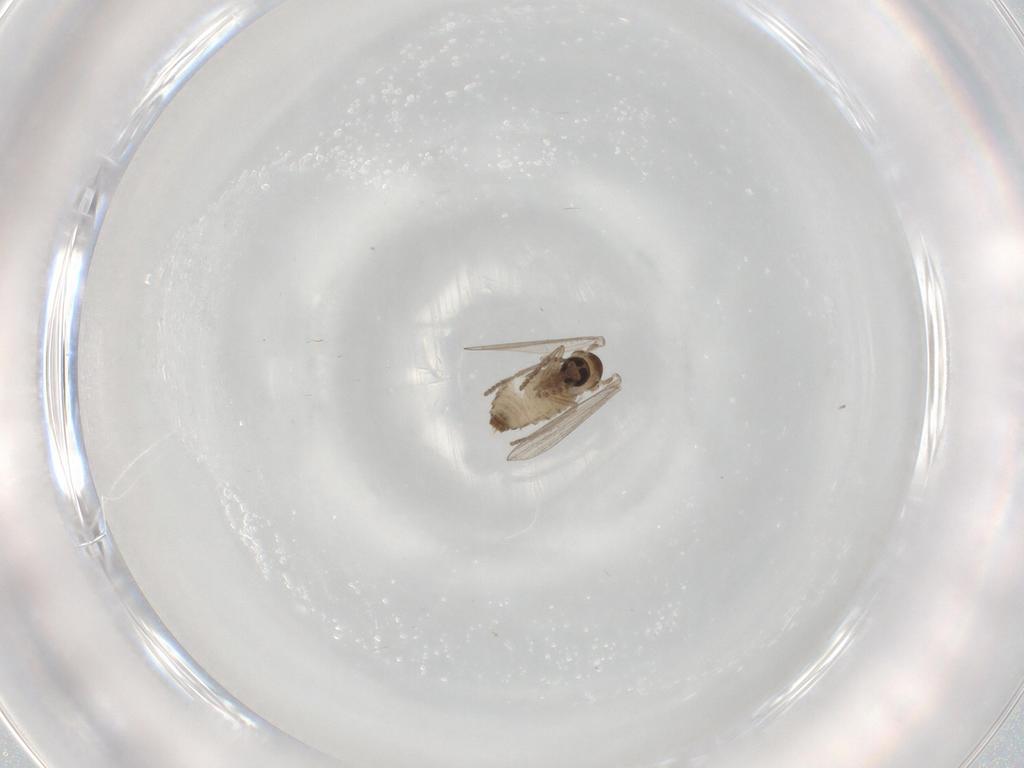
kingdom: Animalia
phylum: Arthropoda
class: Insecta
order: Diptera
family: Psychodidae
